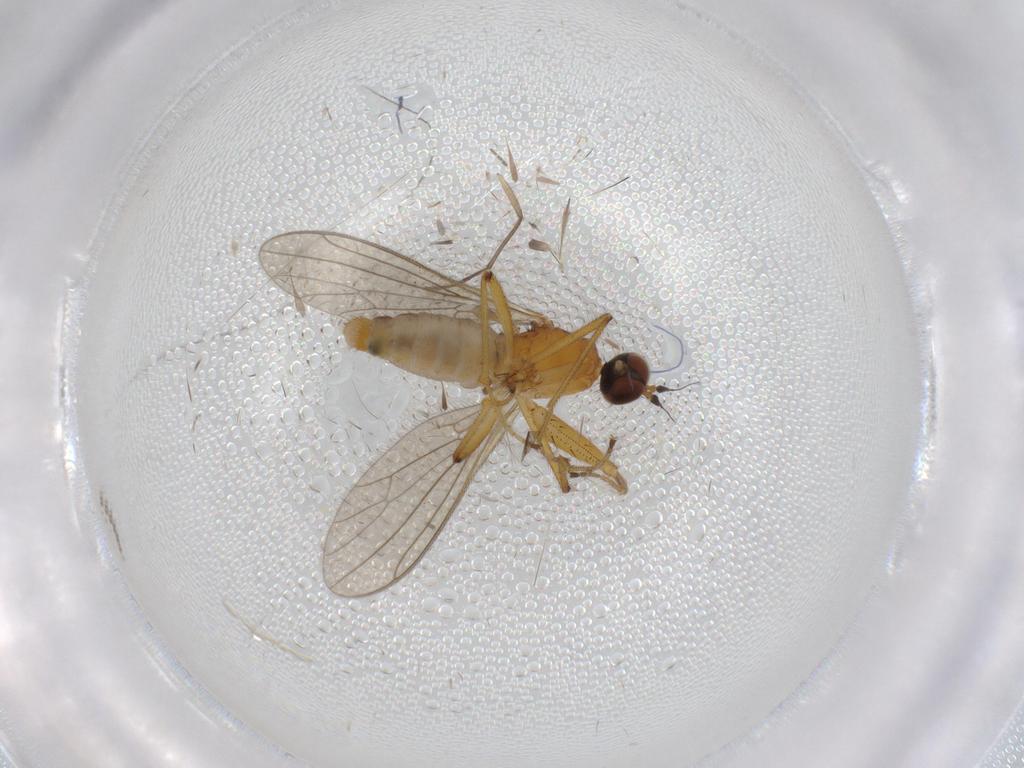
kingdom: Animalia
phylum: Arthropoda
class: Insecta
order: Diptera
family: Empididae
